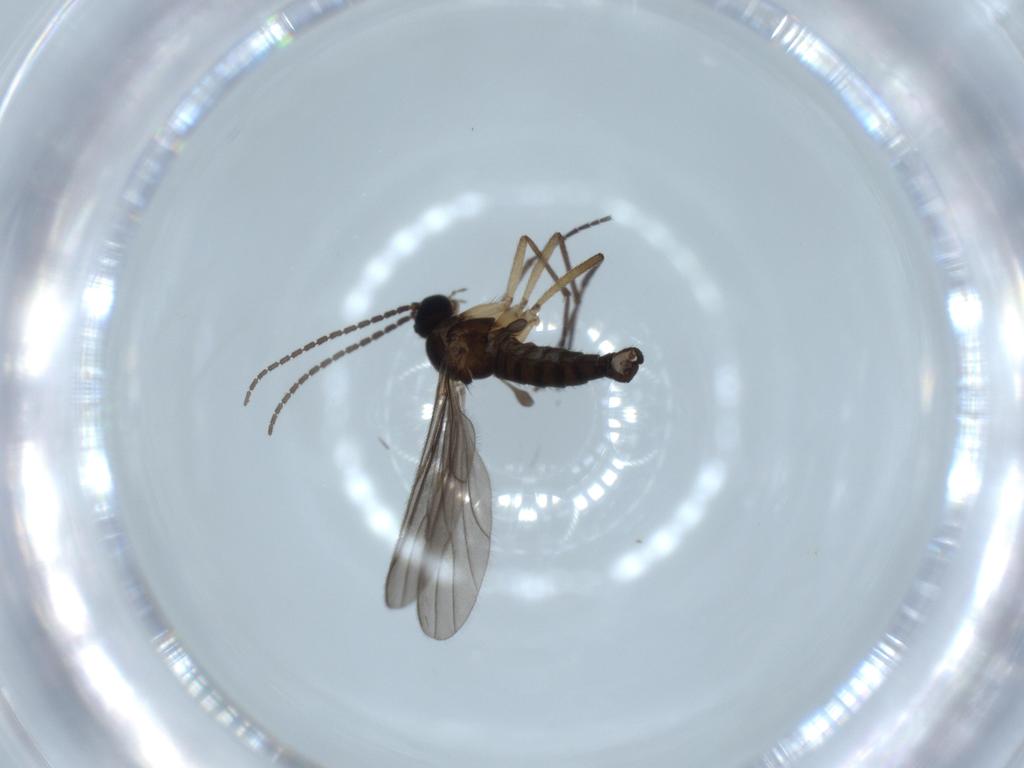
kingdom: Animalia
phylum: Arthropoda
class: Insecta
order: Diptera
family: Sciaridae
